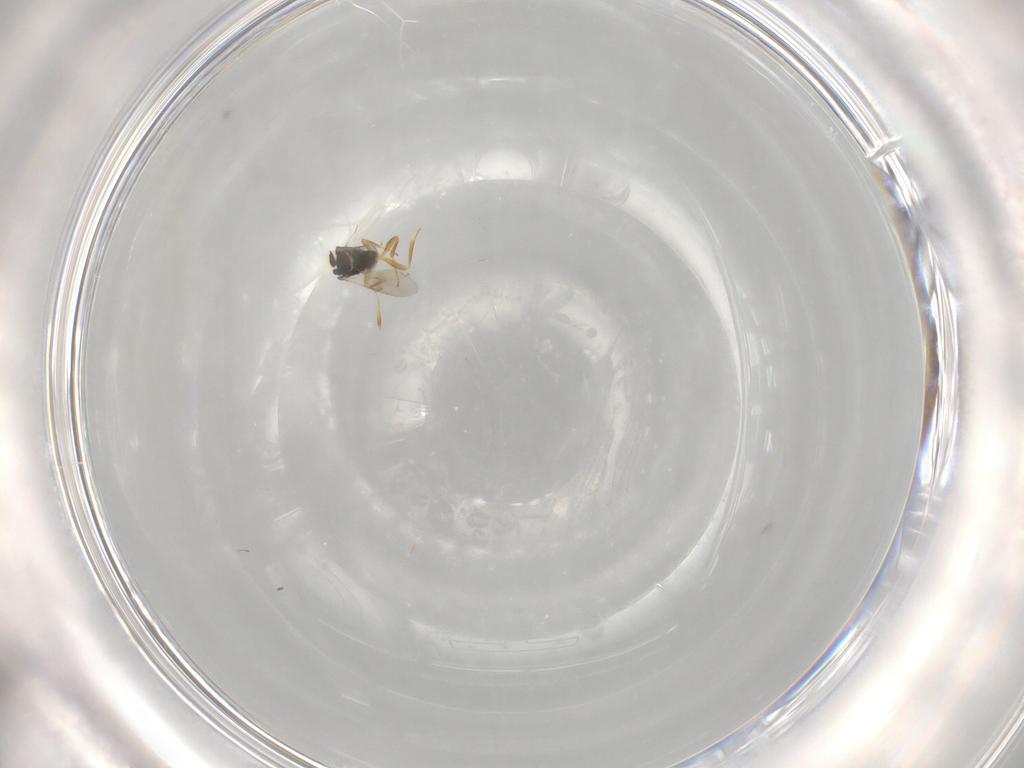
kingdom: Animalia
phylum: Arthropoda
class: Insecta
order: Hymenoptera
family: Scelionidae
